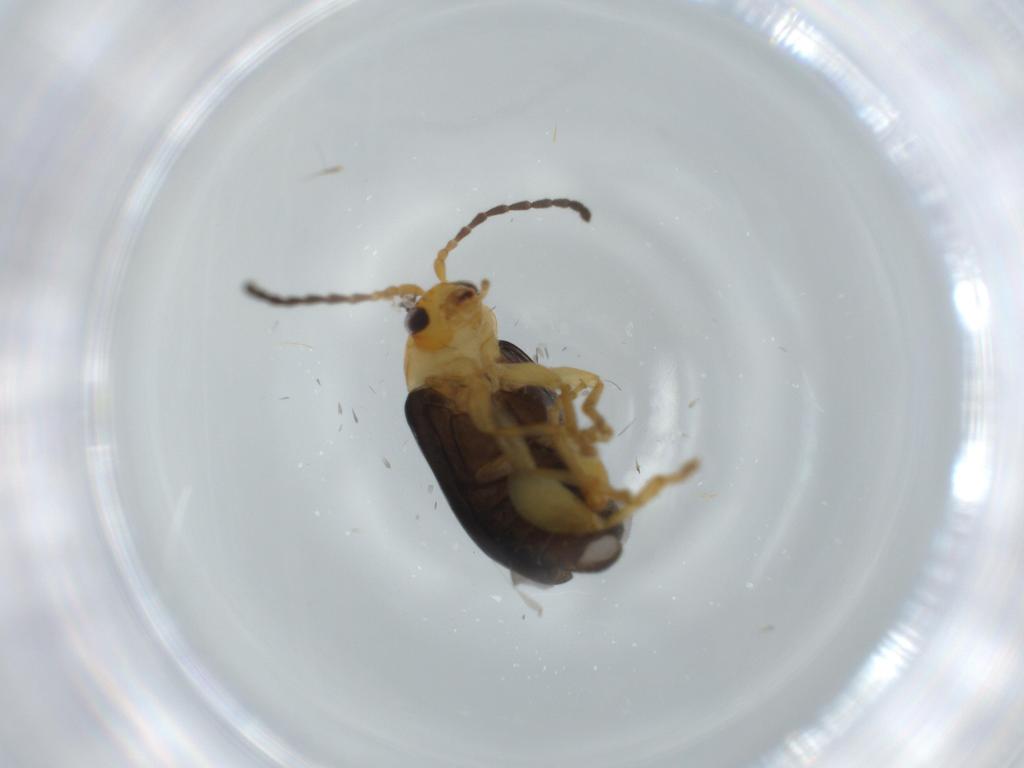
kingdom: Animalia
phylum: Arthropoda
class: Insecta
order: Coleoptera
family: Chrysomelidae
